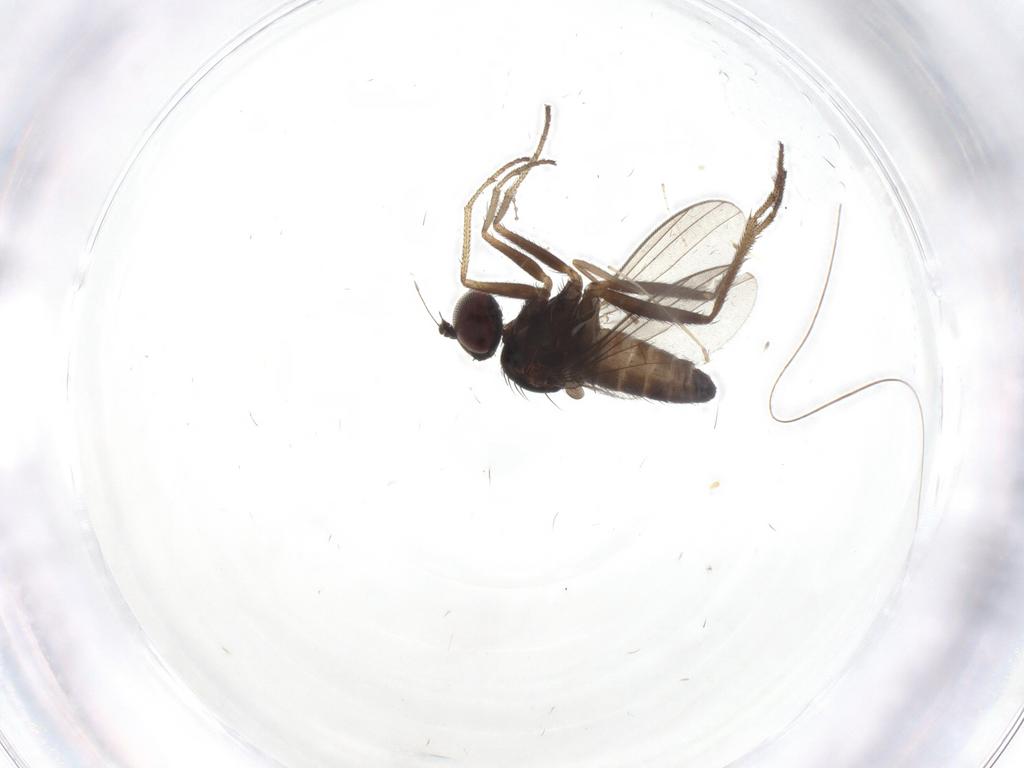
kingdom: Animalia
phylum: Arthropoda
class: Insecta
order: Diptera
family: Dolichopodidae
